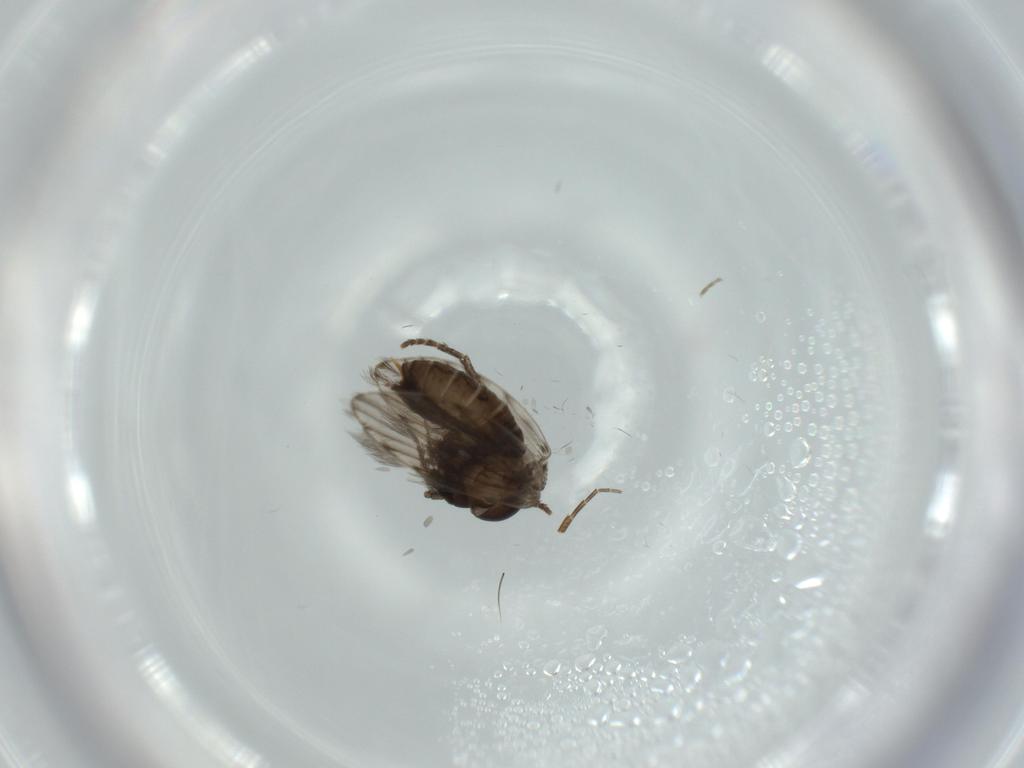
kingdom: Animalia
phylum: Arthropoda
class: Insecta
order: Diptera
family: Psychodidae
